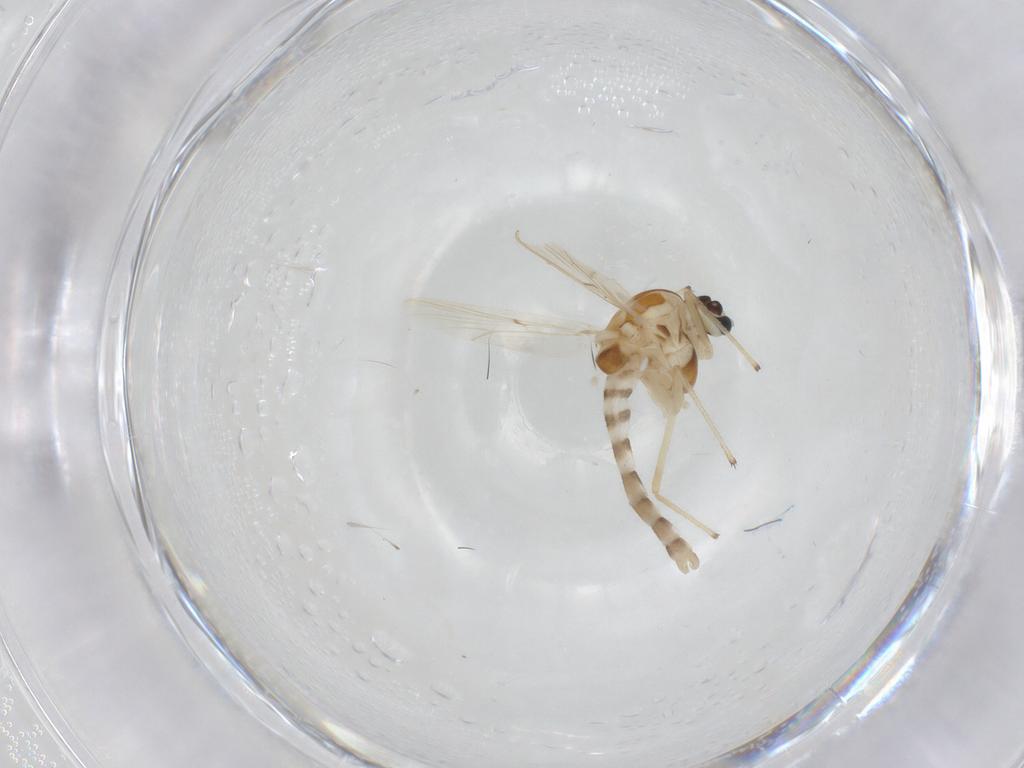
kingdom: Animalia
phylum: Arthropoda
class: Insecta
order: Diptera
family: Chironomidae
